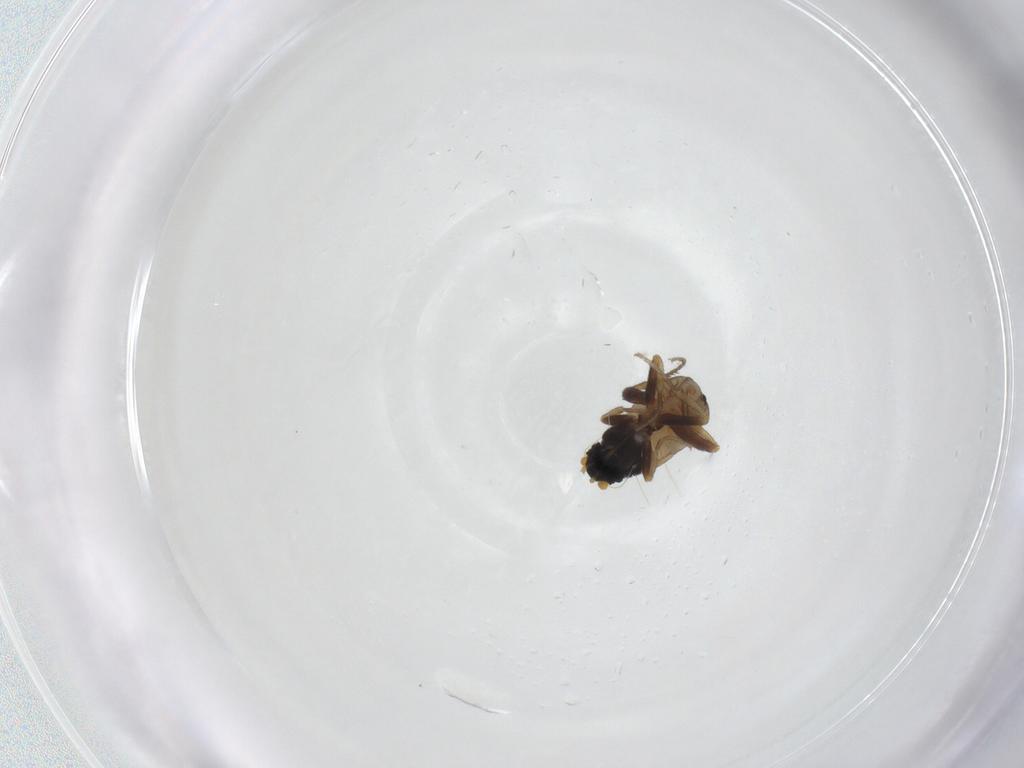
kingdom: Animalia
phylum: Arthropoda
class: Insecta
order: Diptera
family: Phoridae
